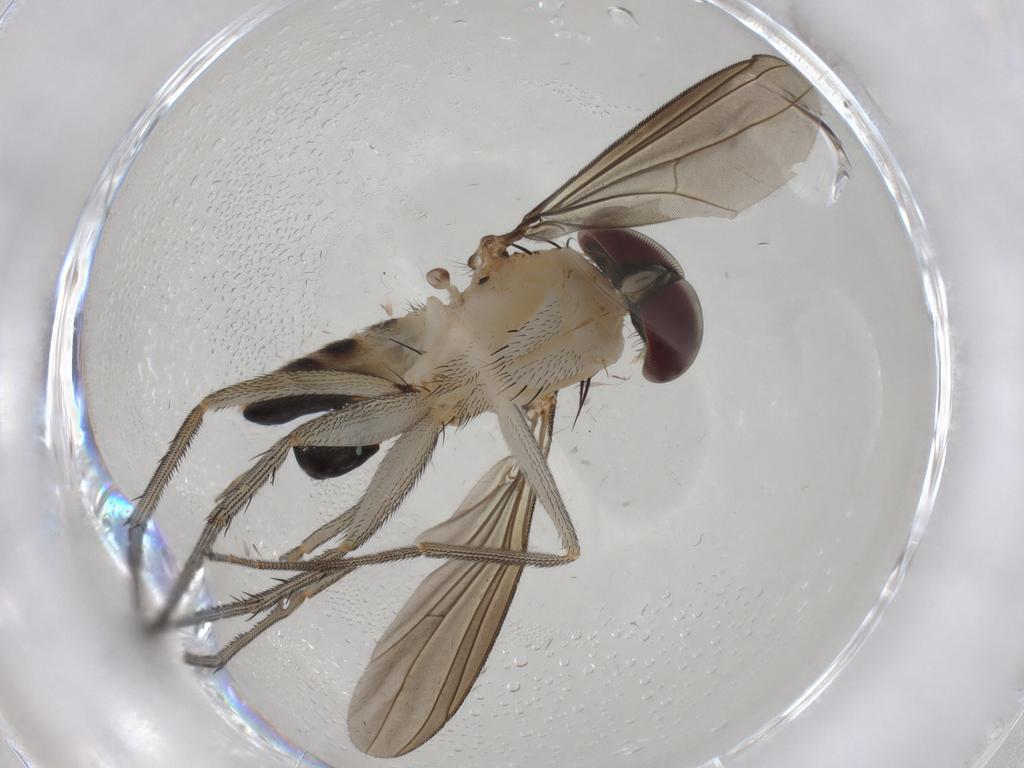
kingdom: Animalia
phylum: Arthropoda
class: Insecta
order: Diptera
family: Dolichopodidae
